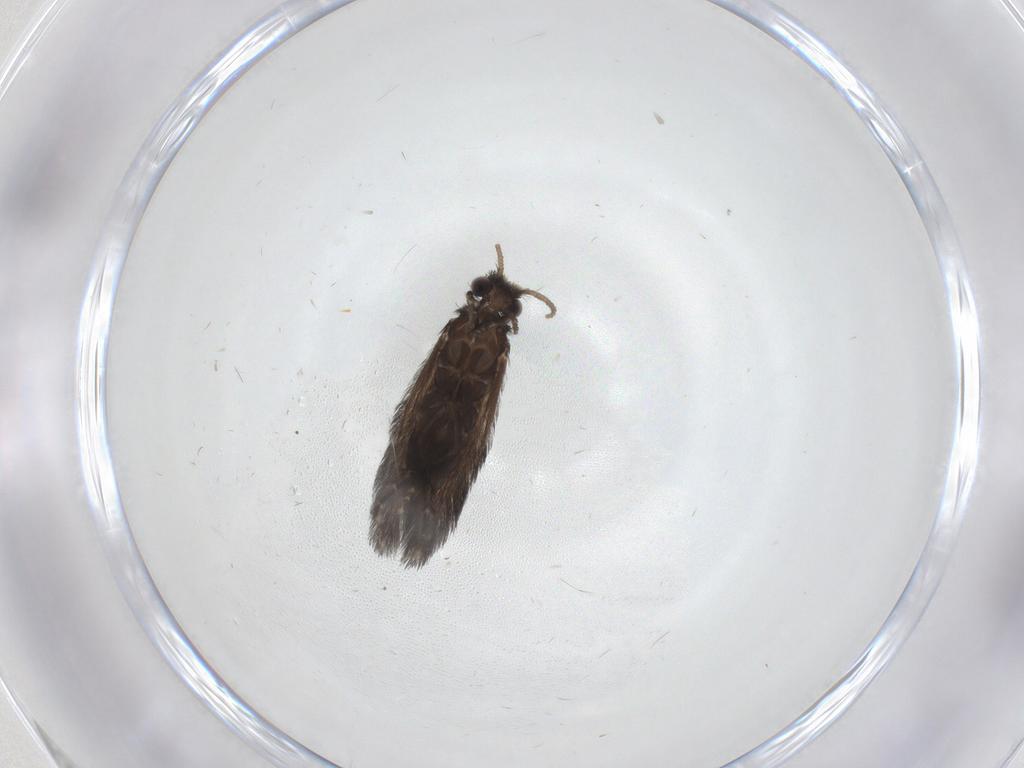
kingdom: Animalia
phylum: Arthropoda
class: Insecta
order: Trichoptera
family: Hydroptilidae
